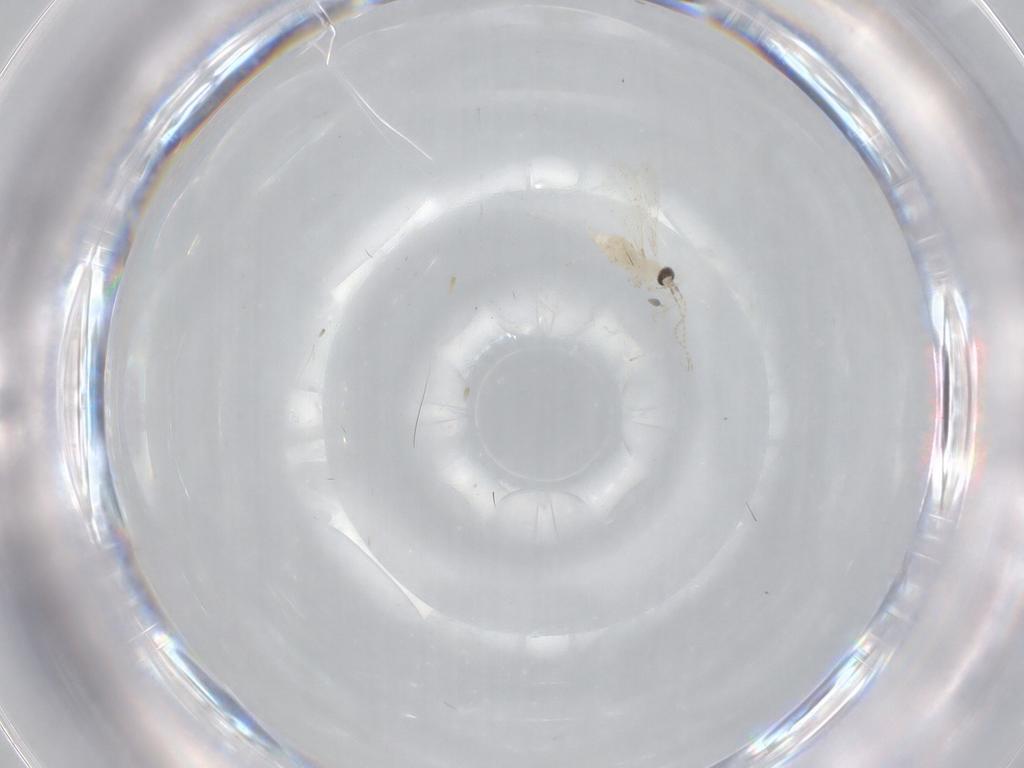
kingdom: Animalia
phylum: Arthropoda
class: Insecta
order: Diptera
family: Cecidomyiidae
